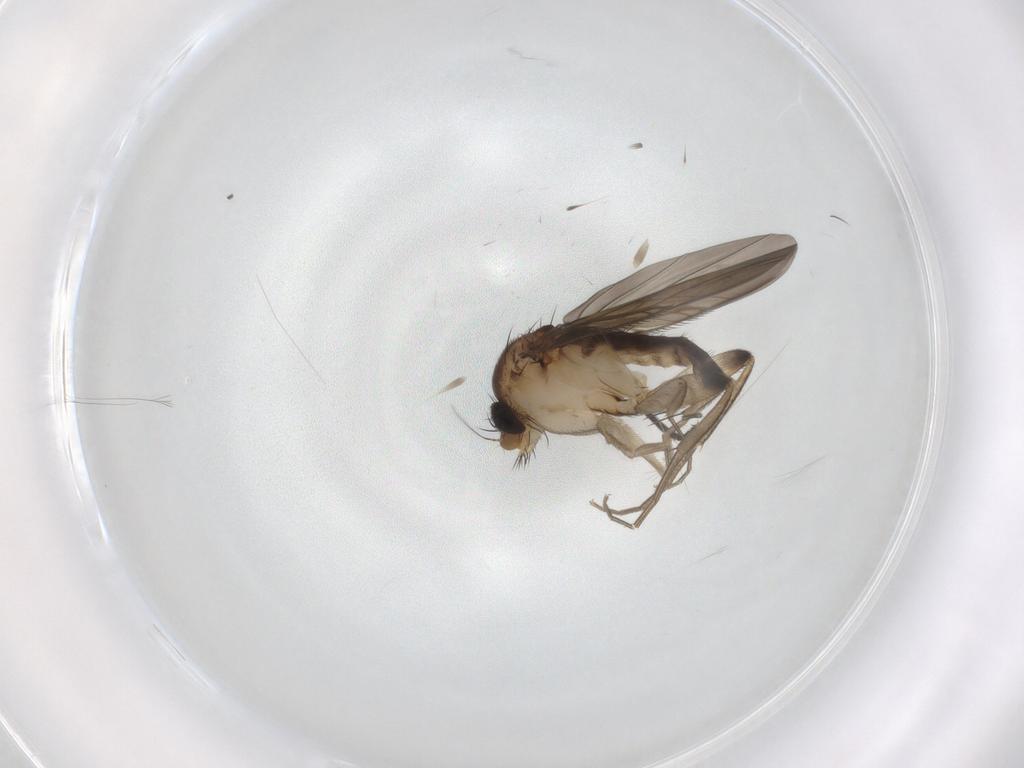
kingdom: Animalia
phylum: Arthropoda
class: Insecta
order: Diptera
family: Phoridae
